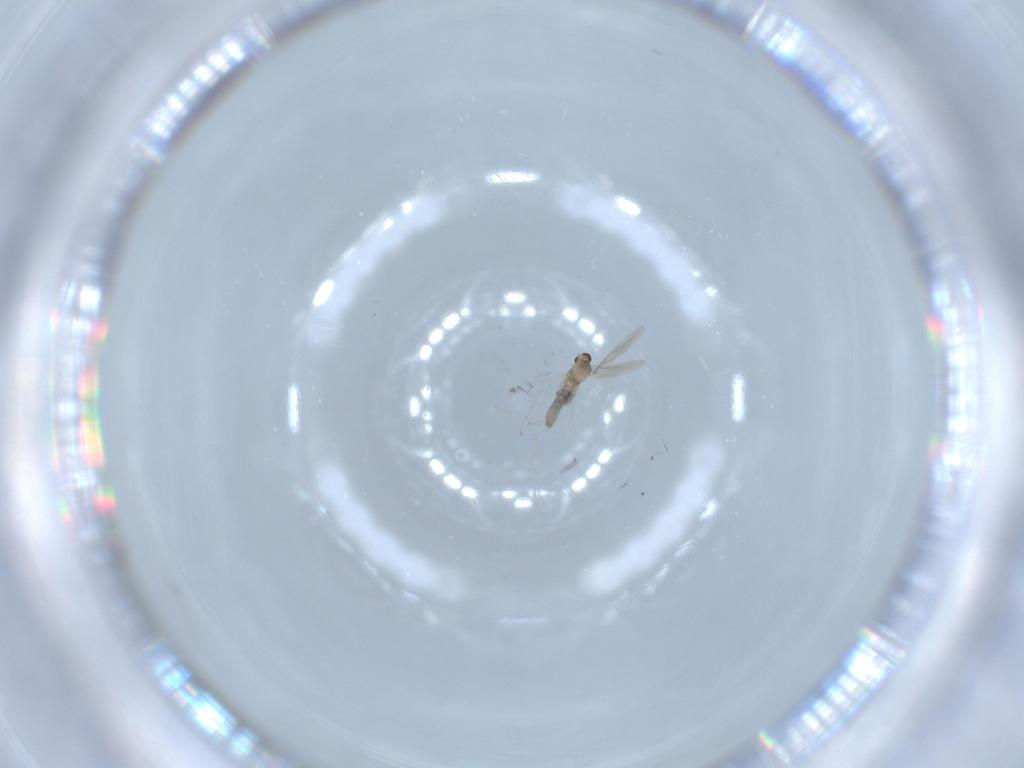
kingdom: Animalia
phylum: Arthropoda
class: Insecta
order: Diptera
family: Cecidomyiidae
